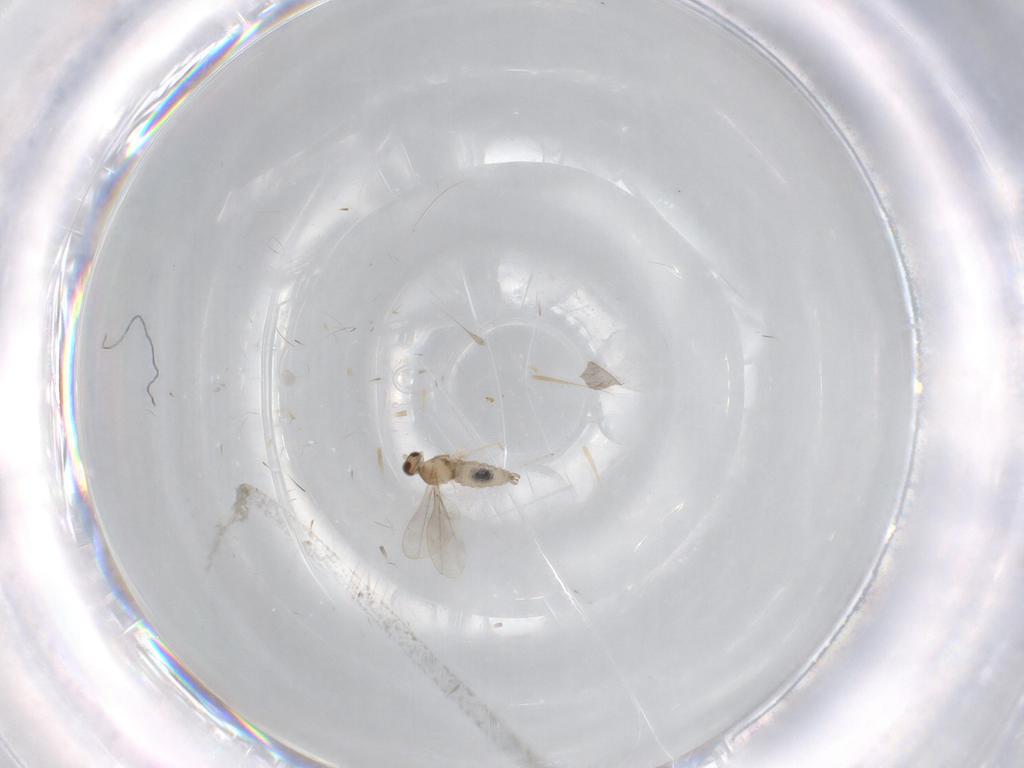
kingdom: Animalia
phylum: Arthropoda
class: Insecta
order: Diptera
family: Cecidomyiidae
